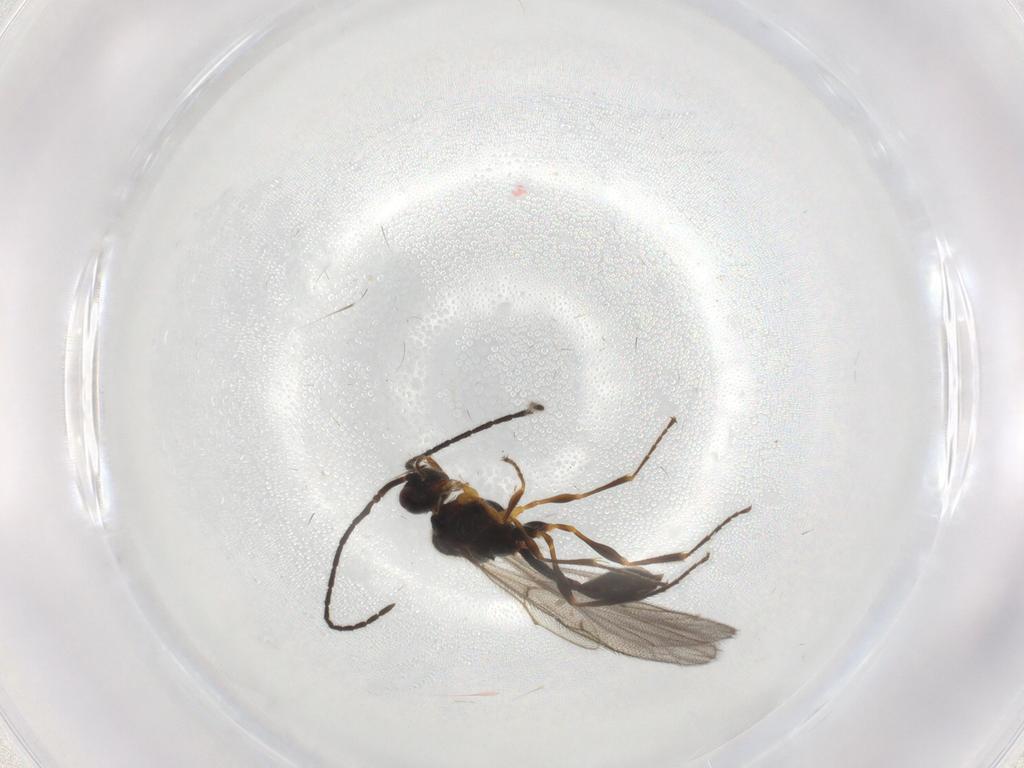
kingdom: Animalia
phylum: Arthropoda
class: Insecta
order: Hymenoptera
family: Diapriidae
